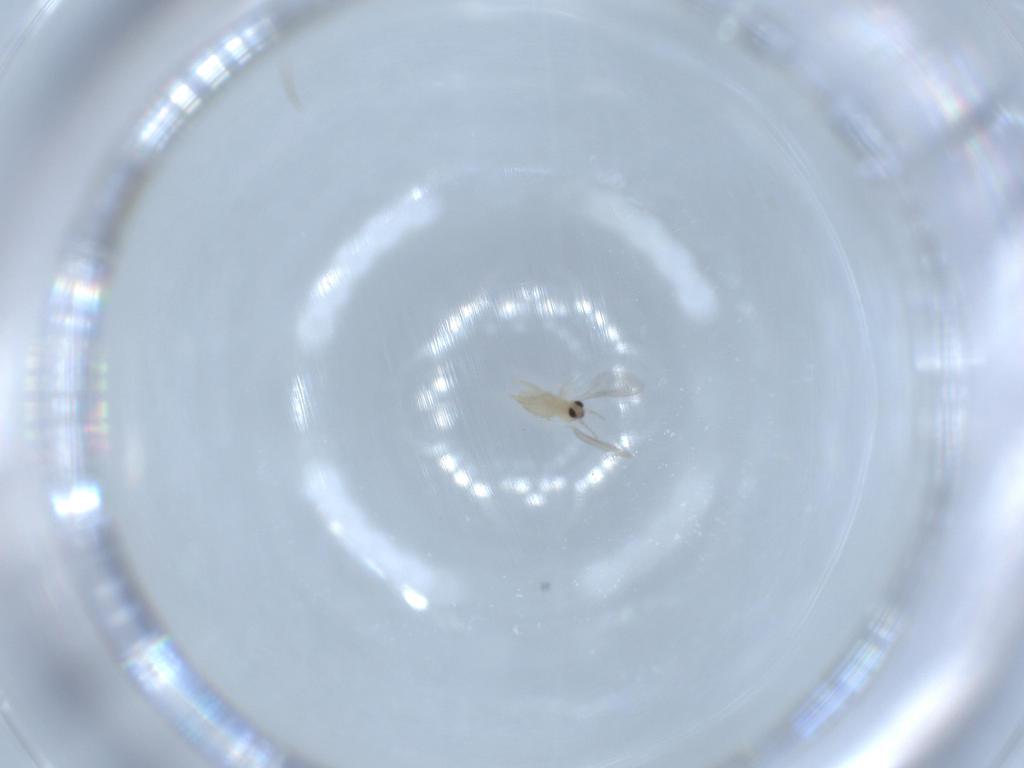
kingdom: Animalia
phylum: Arthropoda
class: Insecta
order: Diptera
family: Cecidomyiidae
